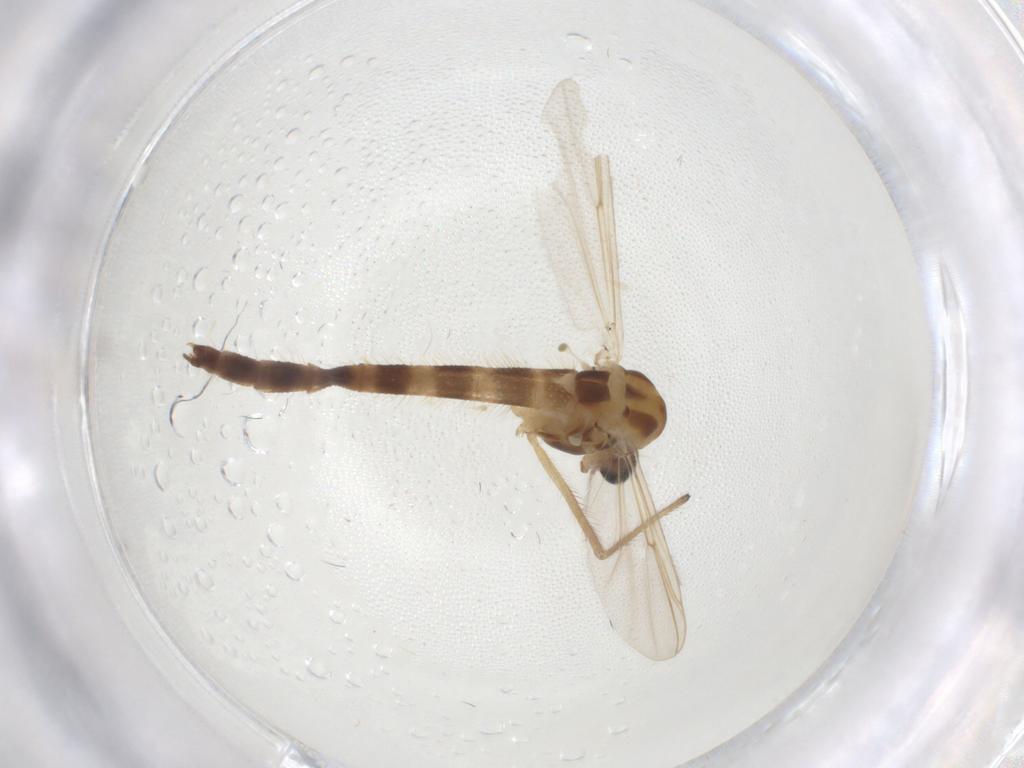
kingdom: Animalia
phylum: Arthropoda
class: Insecta
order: Diptera
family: Chironomidae
